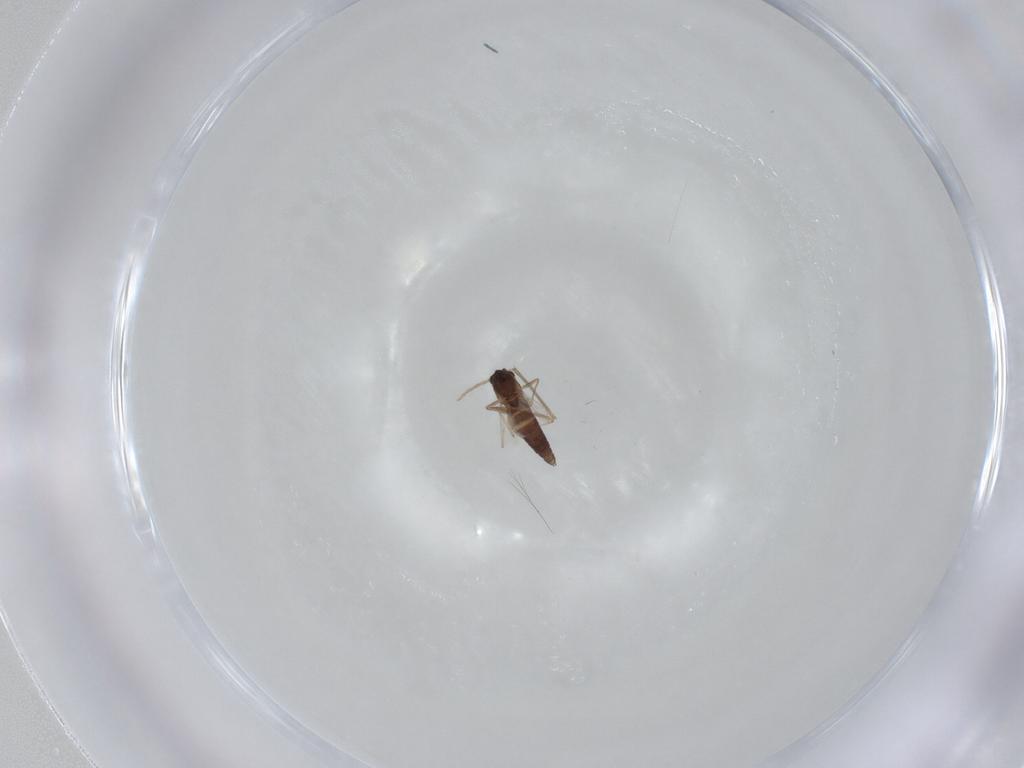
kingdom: Animalia
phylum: Arthropoda
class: Insecta
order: Diptera
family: Chironomidae
